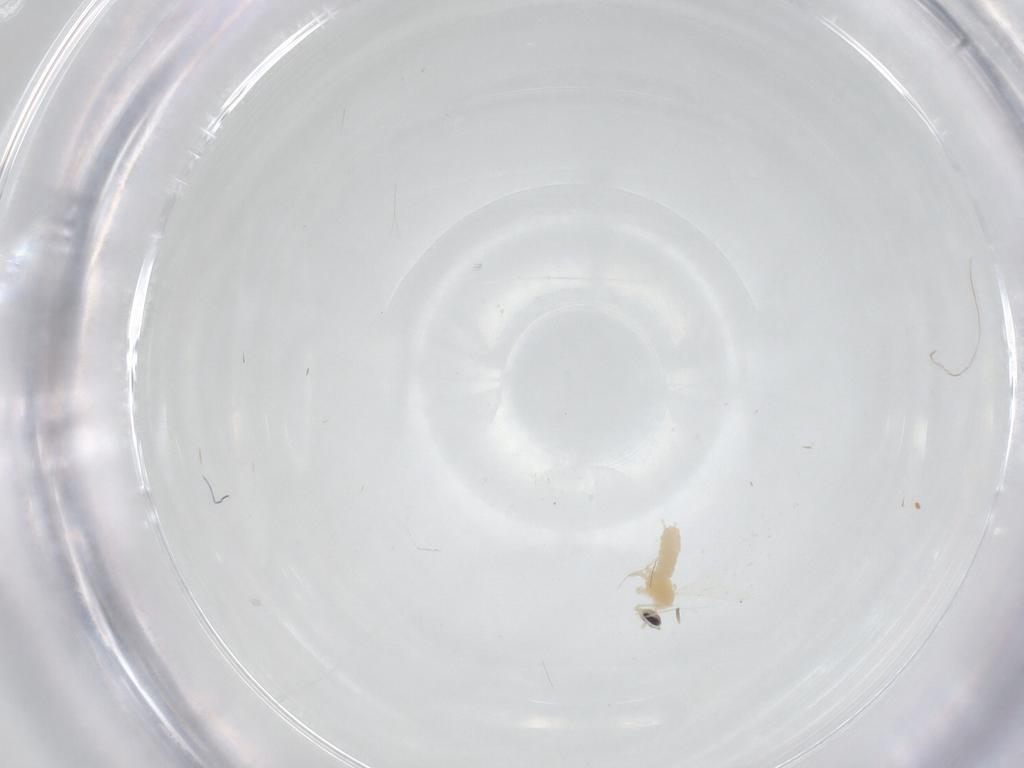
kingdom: Animalia
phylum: Arthropoda
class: Insecta
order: Diptera
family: Cecidomyiidae
